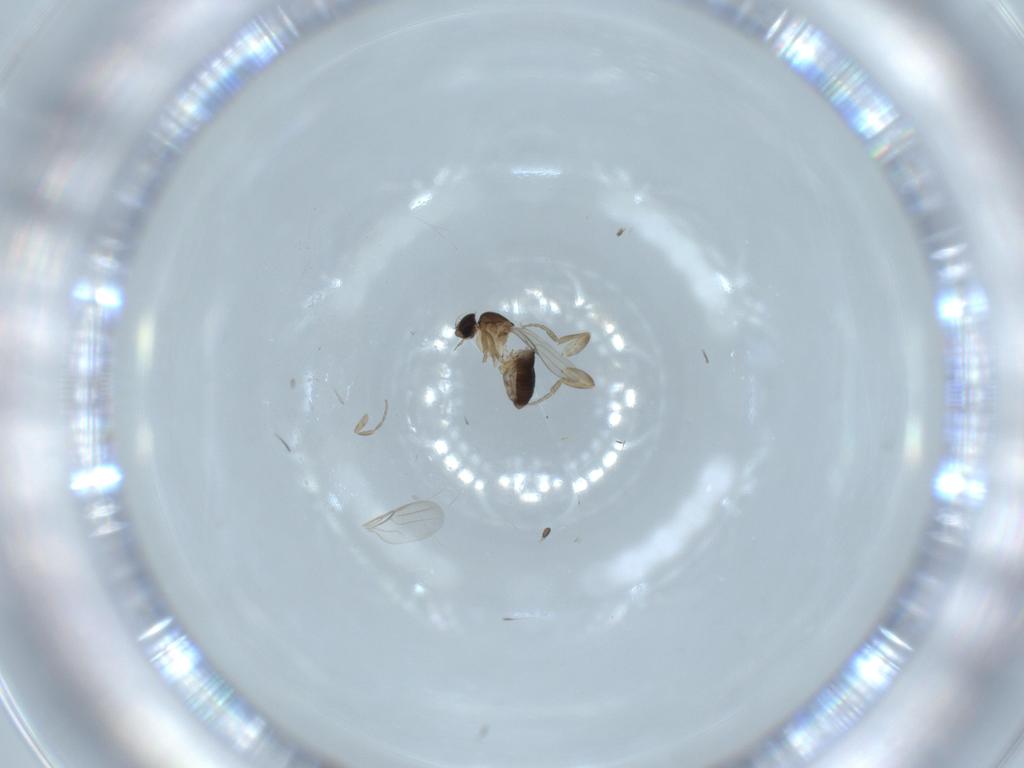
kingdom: Animalia
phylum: Arthropoda
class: Insecta
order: Diptera
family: Phoridae
